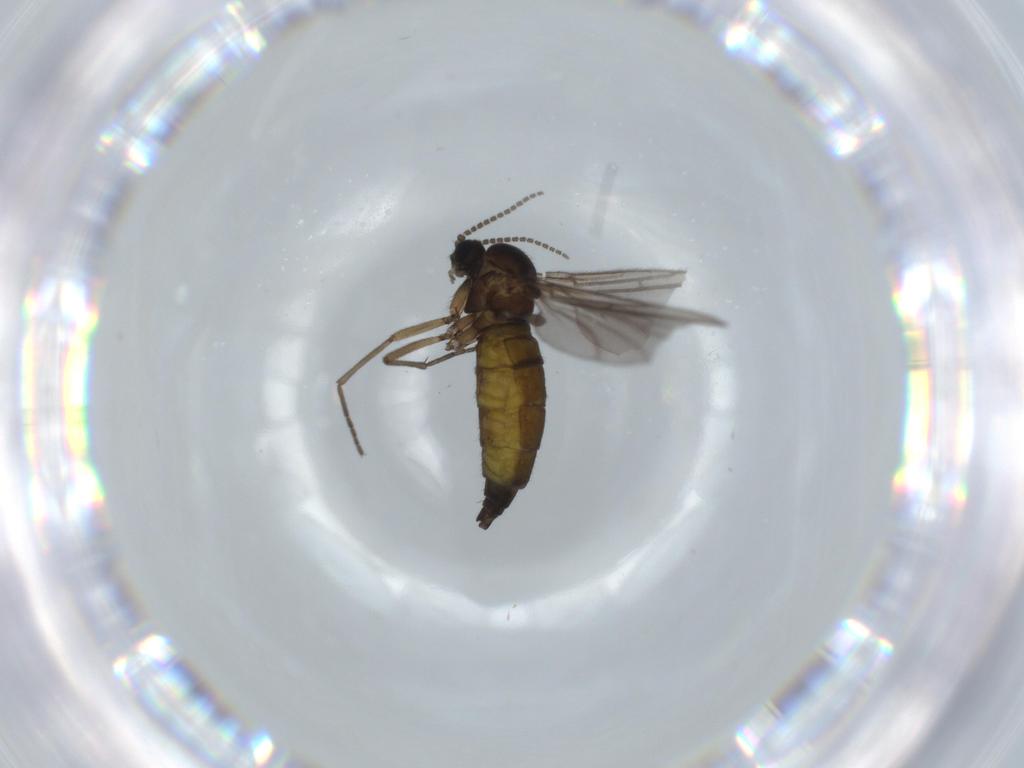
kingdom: Animalia
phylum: Arthropoda
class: Insecta
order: Diptera
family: Sciaridae
